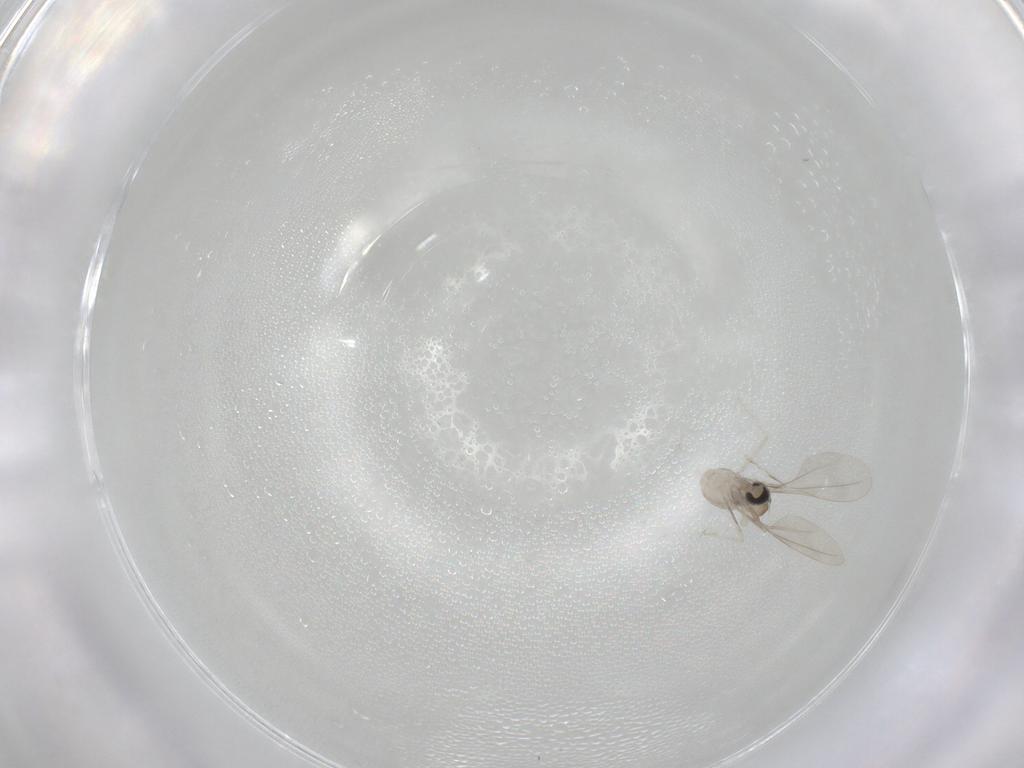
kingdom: Animalia
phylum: Arthropoda
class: Insecta
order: Diptera
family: Cecidomyiidae
